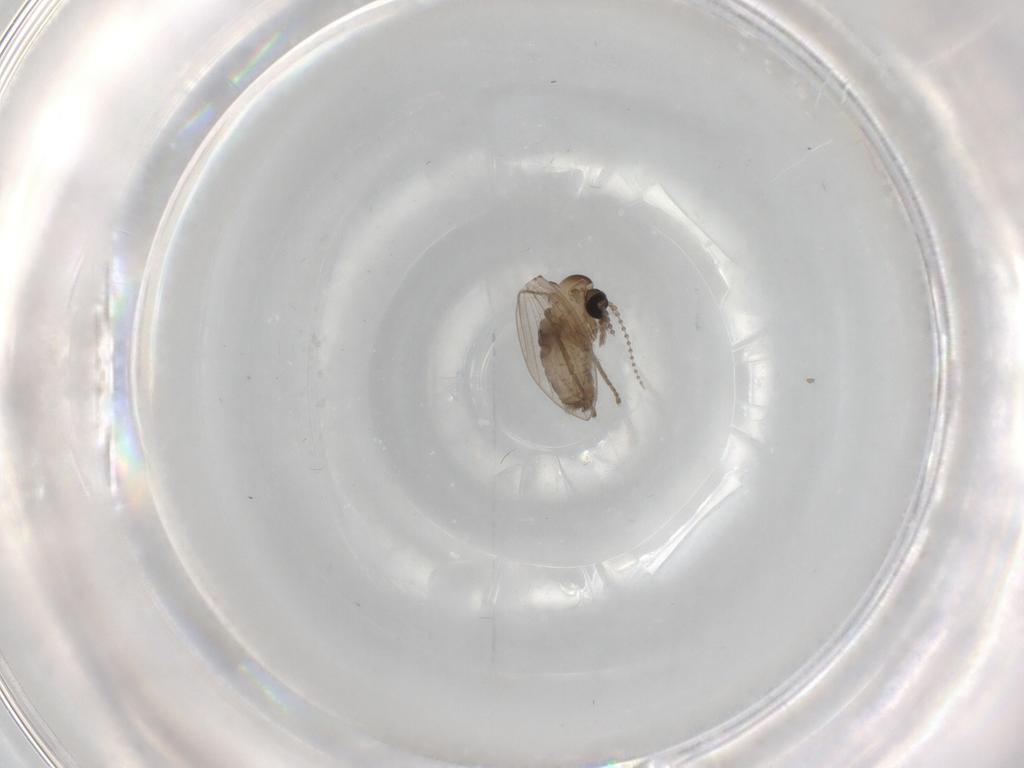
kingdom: Animalia
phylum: Arthropoda
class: Insecta
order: Diptera
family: Psychodidae
